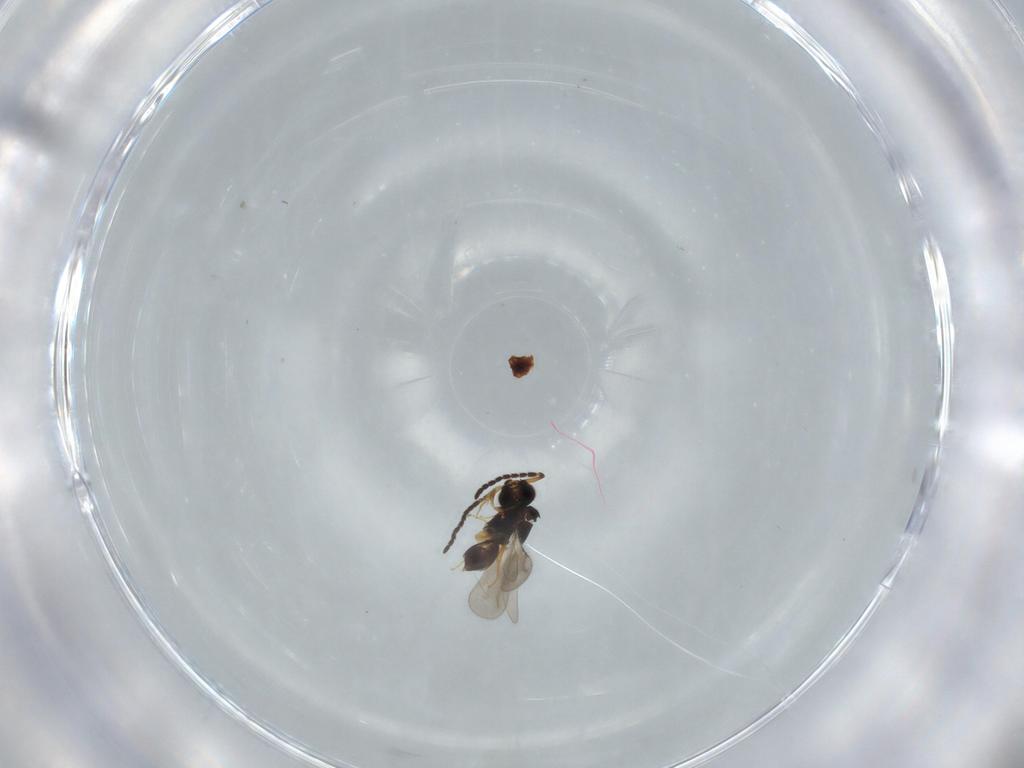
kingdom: Animalia
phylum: Arthropoda
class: Insecta
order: Hymenoptera
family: Ceraphronidae
